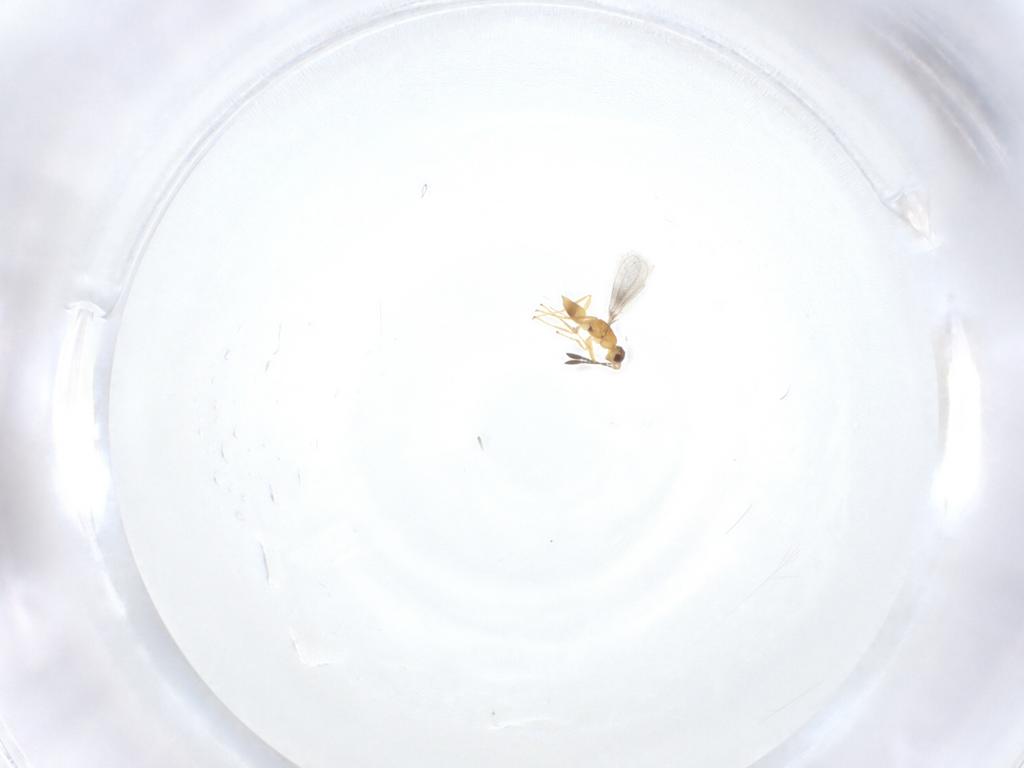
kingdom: Animalia
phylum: Arthropoda
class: Insecta
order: Hymenoptera
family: Mymaridae
